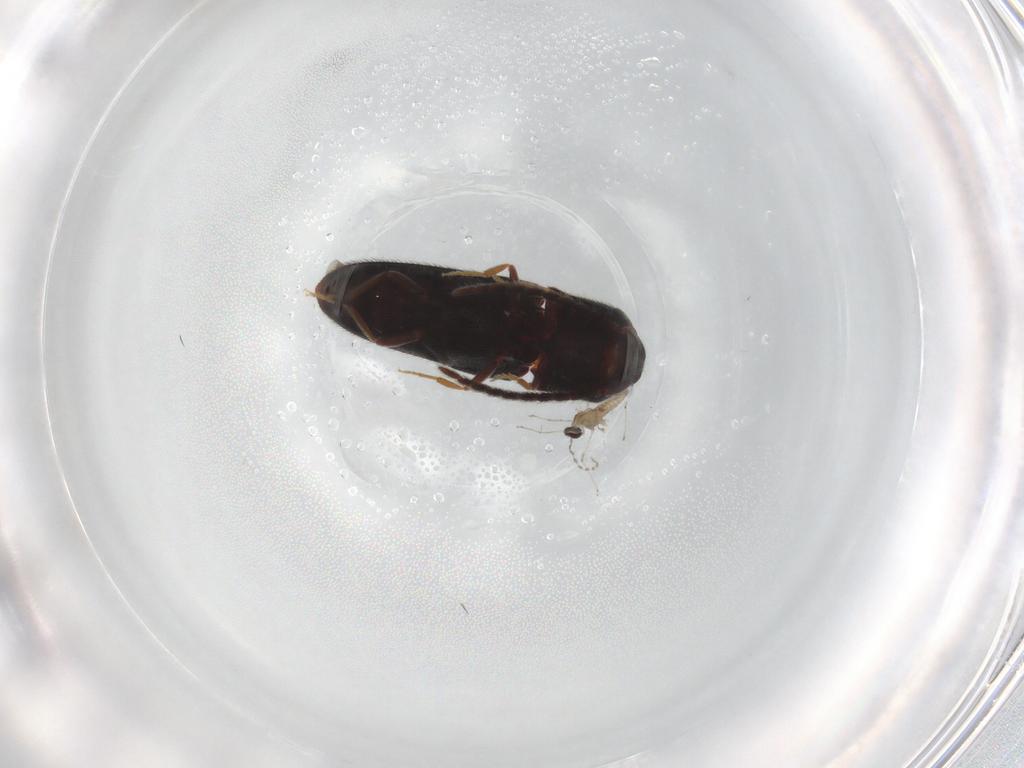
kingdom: Animalia
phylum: Arthropoda
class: Insecta
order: Coleoptera
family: Eucnemidae
